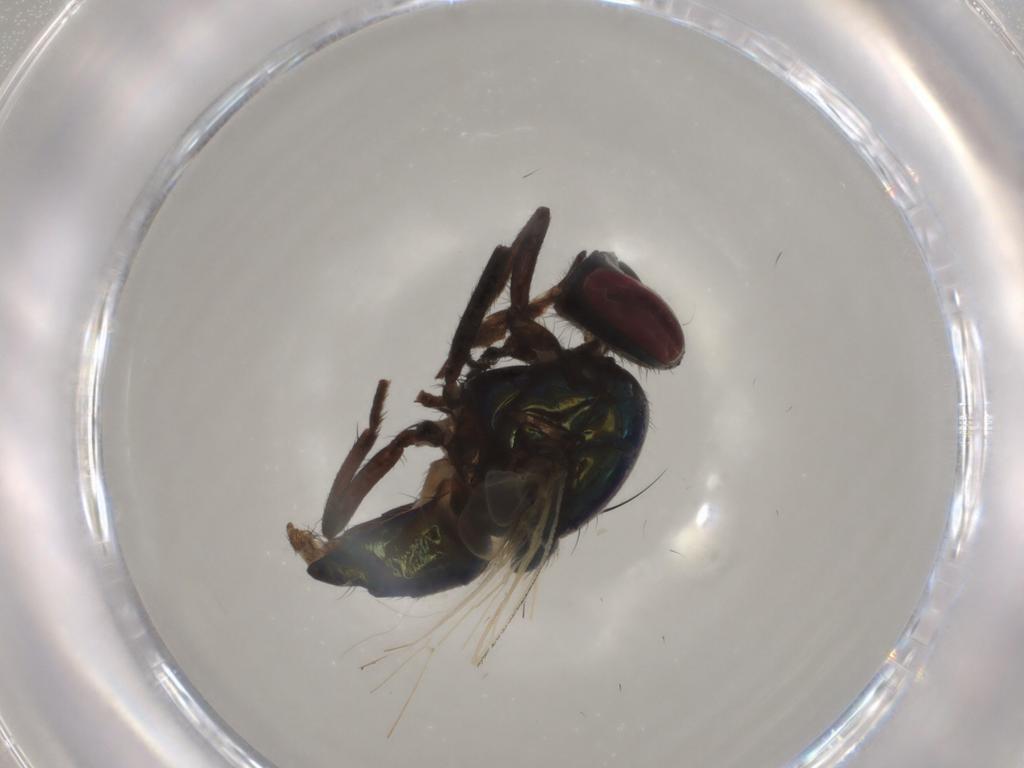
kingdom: Animalia
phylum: Arthropoda
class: Insecta
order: Diptera
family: Muscidae
